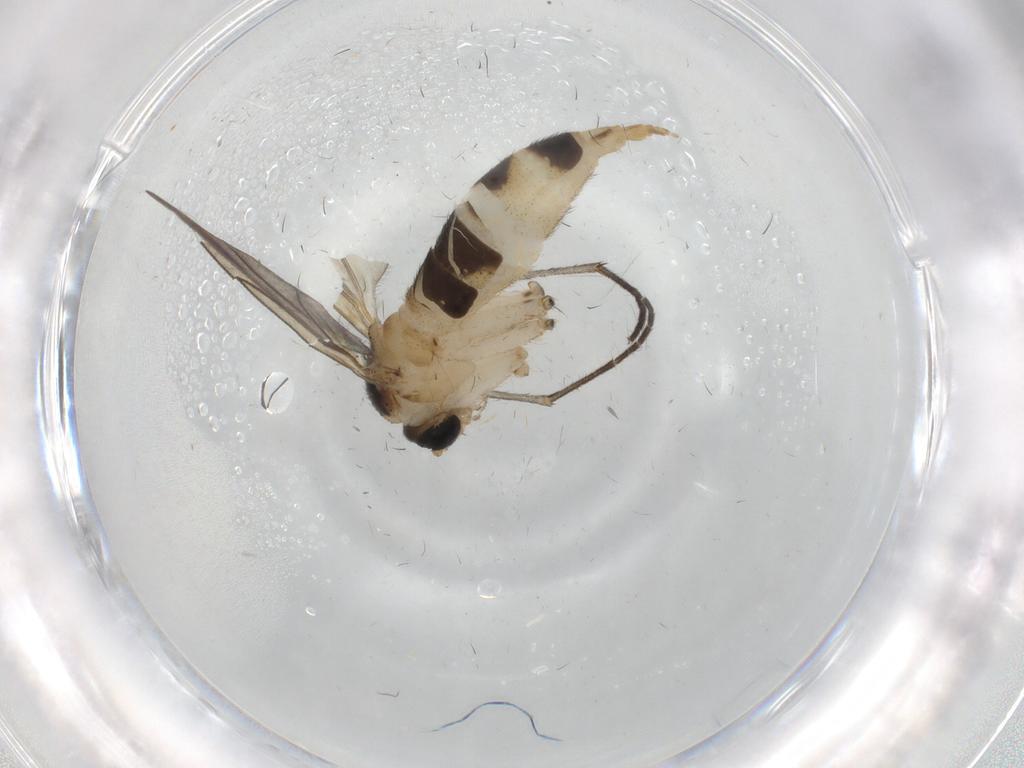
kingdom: Animalia
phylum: Arthropoda
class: Insecta
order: Diptera
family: Sciaridae
